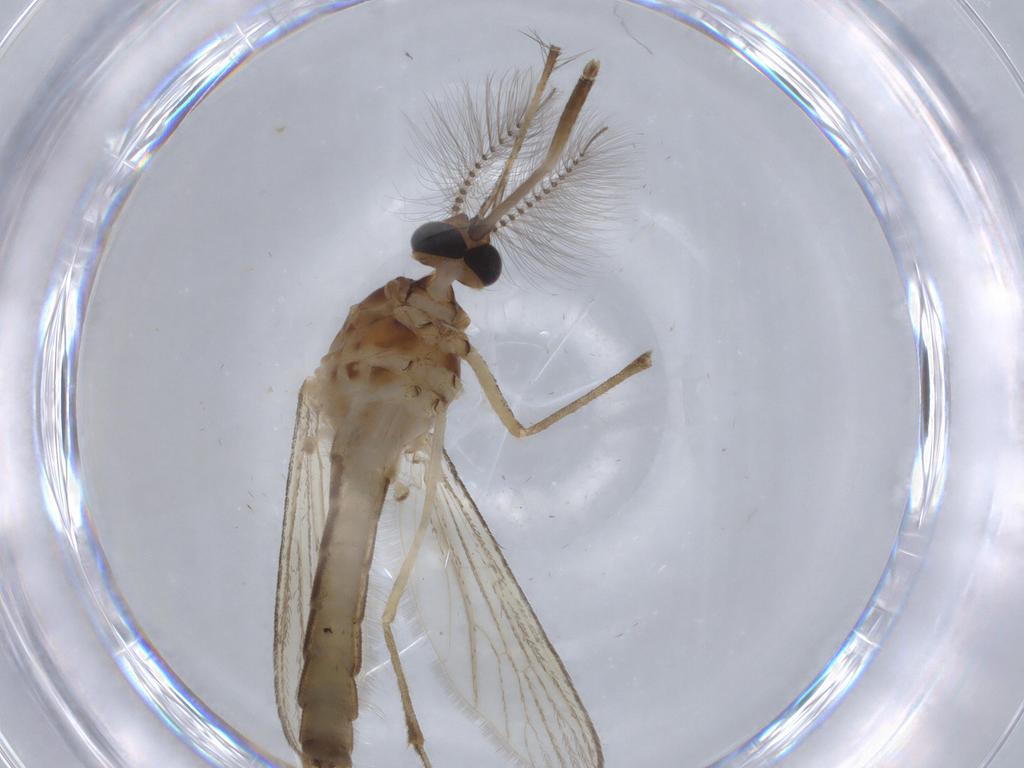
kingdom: Animalia
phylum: Arthropoda
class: Insecta
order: Diptera
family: Culicidae
